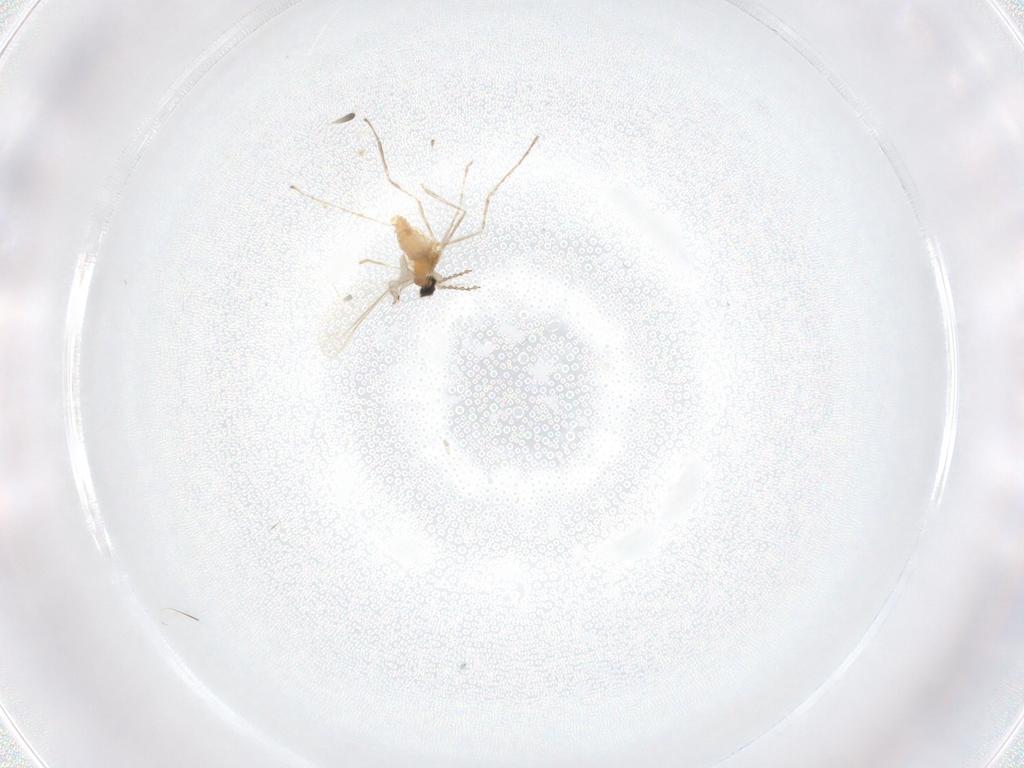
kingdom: Animalia
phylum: Arthropoda
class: Insecta
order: Diptera
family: Cecidomyiidae
